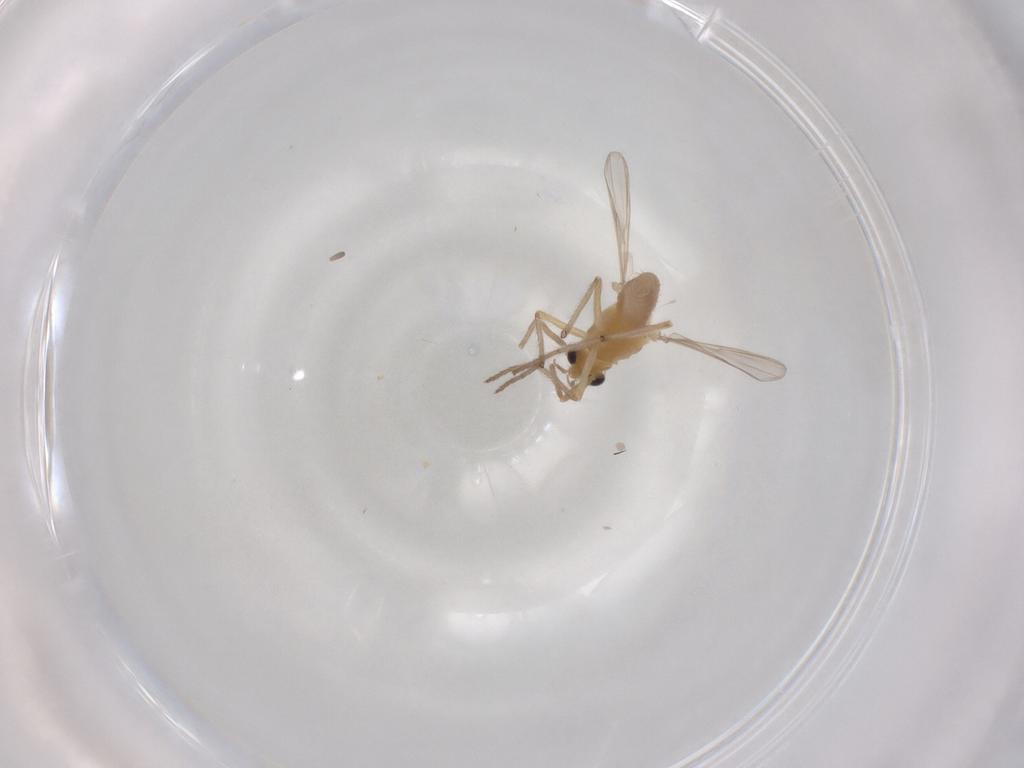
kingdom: Animalia
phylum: Arthropoda
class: Insecta
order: Diptera
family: Chironomidae
